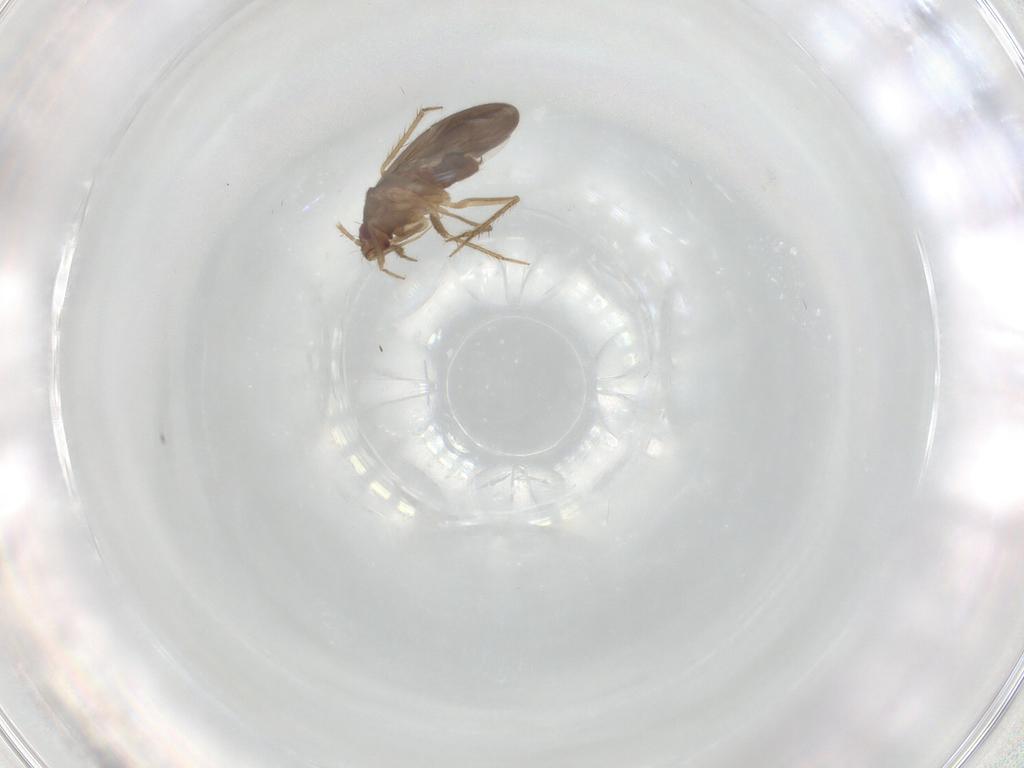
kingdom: Animalia
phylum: Arthropoda
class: Insecta
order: Hemiptera
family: Ceratocombidae
